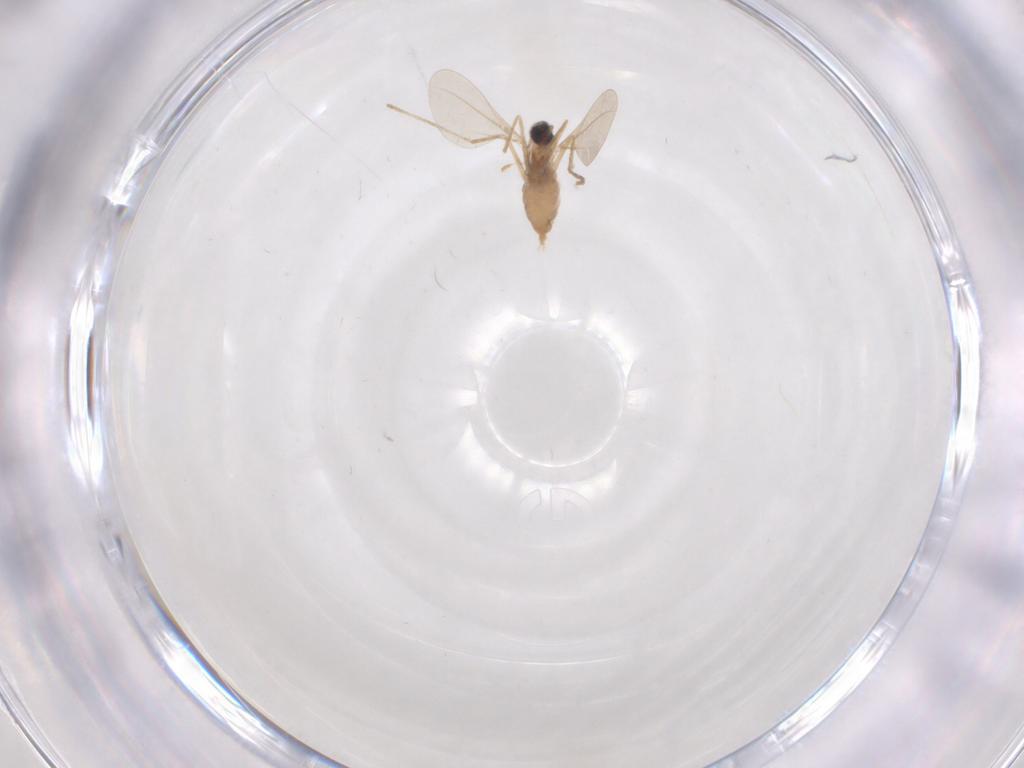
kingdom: Animalia
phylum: Arthropoda
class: Insecta
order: Diptera
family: Cecidomyiidae
